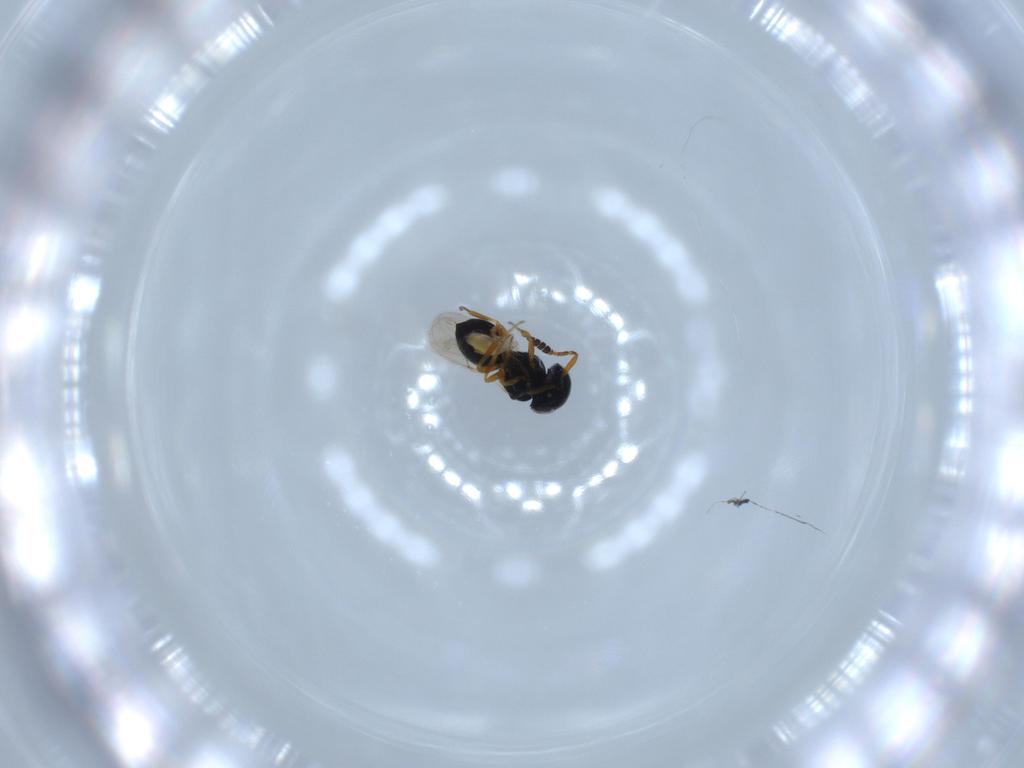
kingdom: Animalia
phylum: Arthropoda
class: Insecta
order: Hymenoptera
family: Scelionidae
